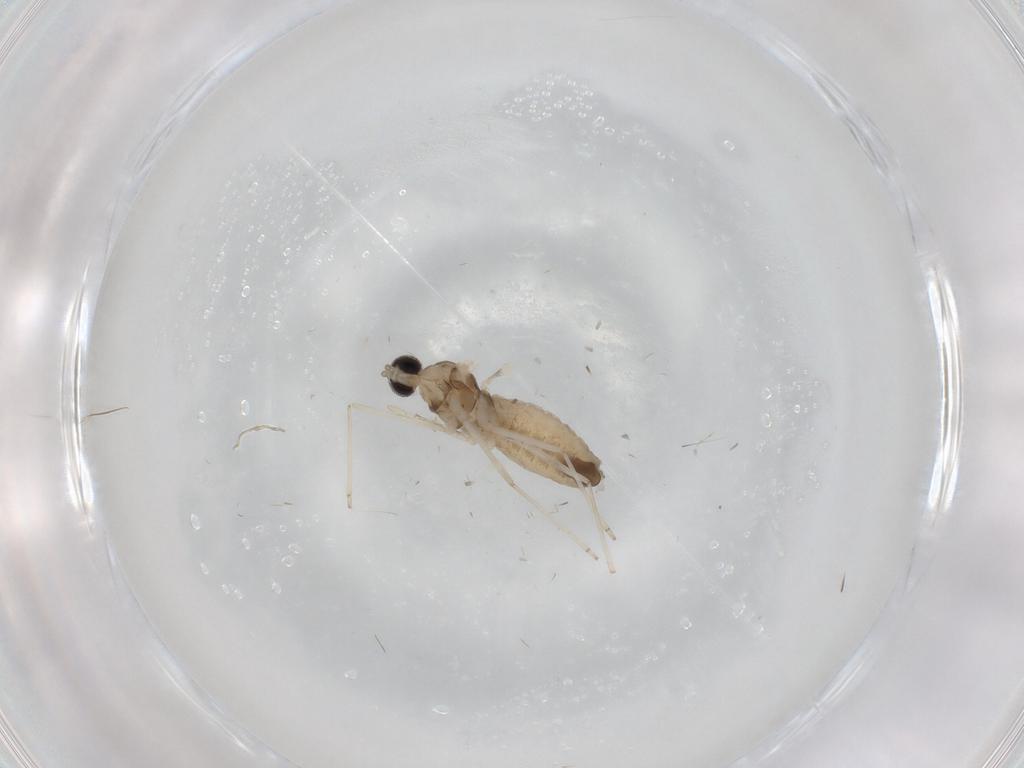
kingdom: Animalia
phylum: Arthropoda
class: Insecta
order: Diptera
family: Cecidomyiidae
